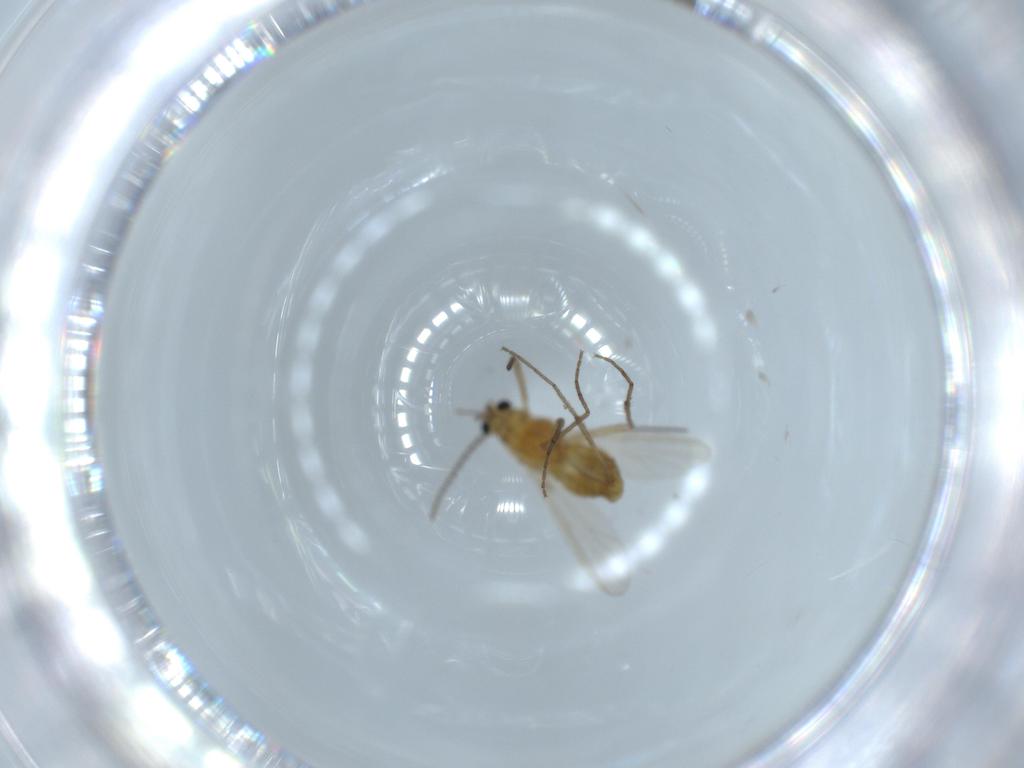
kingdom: Animalia
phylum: Arthropoda
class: Insecta
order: Diptera
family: Chironomidae
